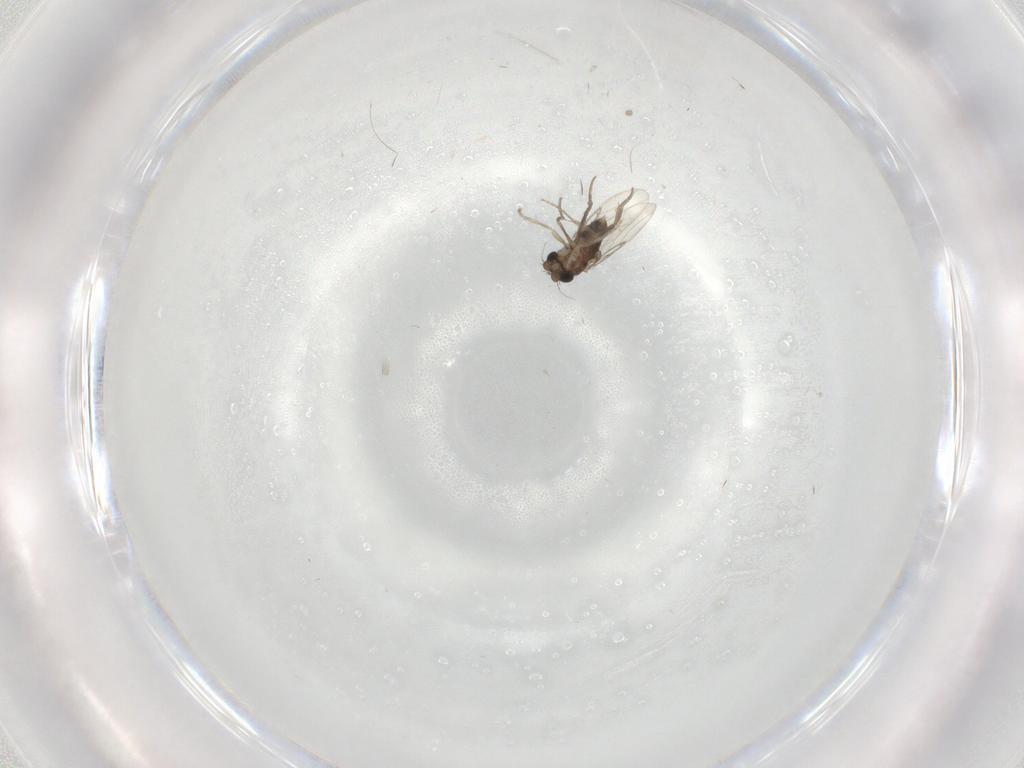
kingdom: Animalia
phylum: Arthropoda
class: Insecta
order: Diptera
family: Phoridae
